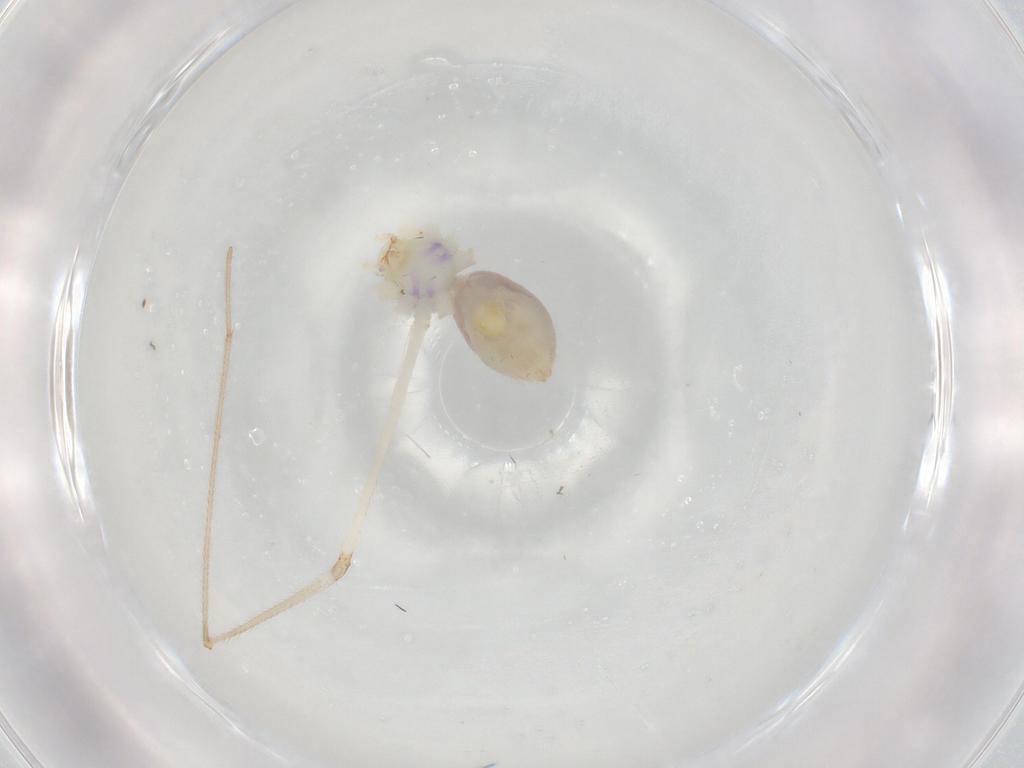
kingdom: Animalia
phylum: Arthropoda
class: Arachnida
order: Araneae
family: Pholcidae
